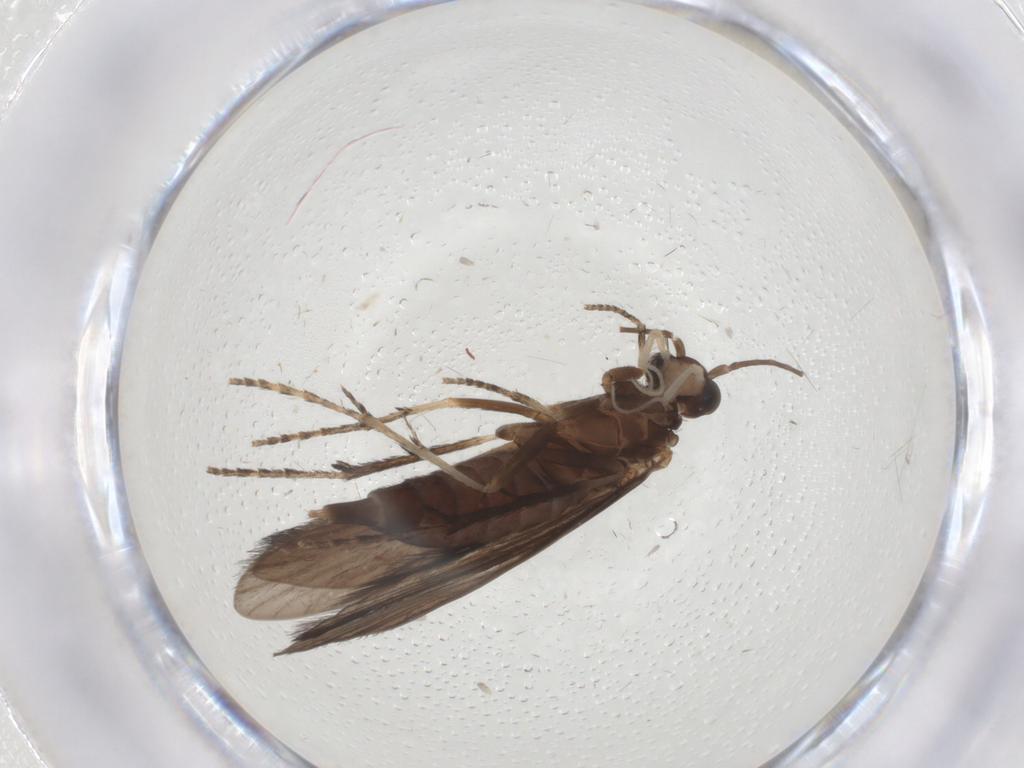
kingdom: Animalia
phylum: Arthropoda
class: Insecta
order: Trichoptera
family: Xiphocentronidae
